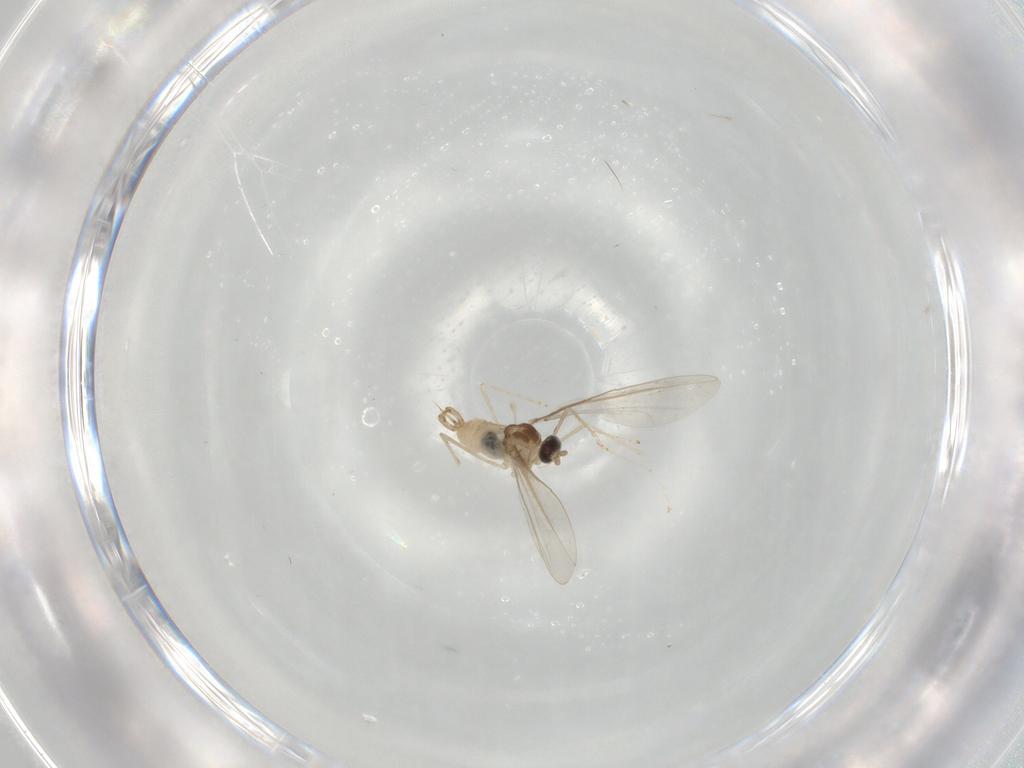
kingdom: Animalia
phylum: Arthropoda
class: Insecta
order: Diptera
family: Cecidomyiidae
